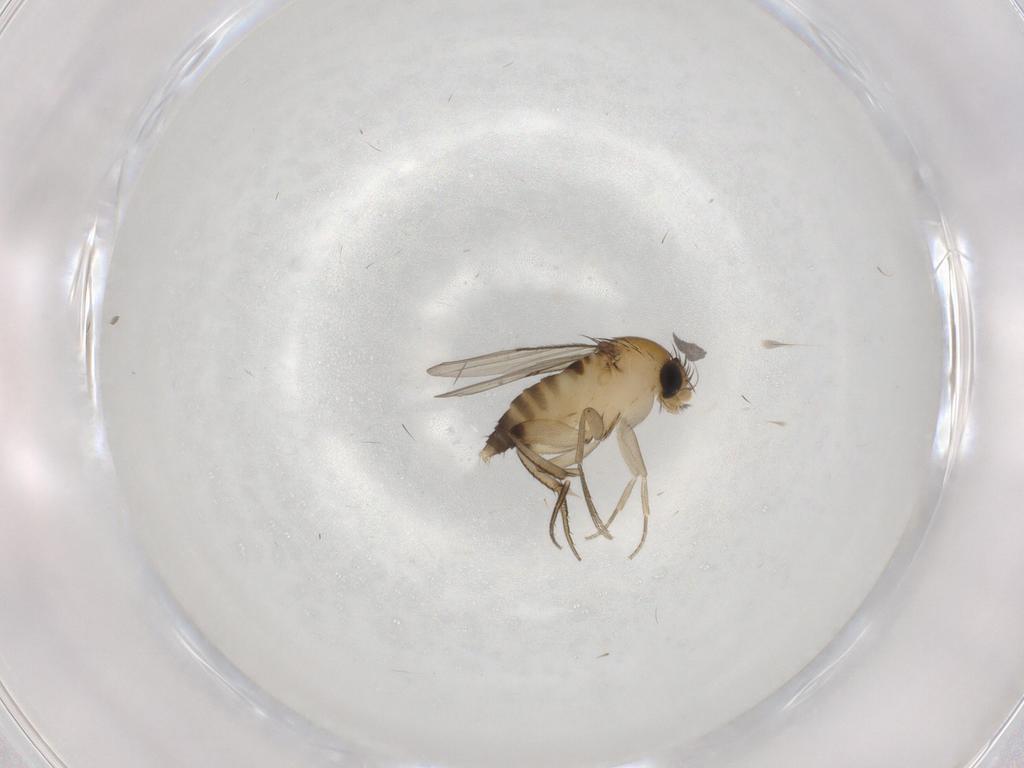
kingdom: Animalia
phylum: Arthropoda
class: Insecta
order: Diptera
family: Phoridae
